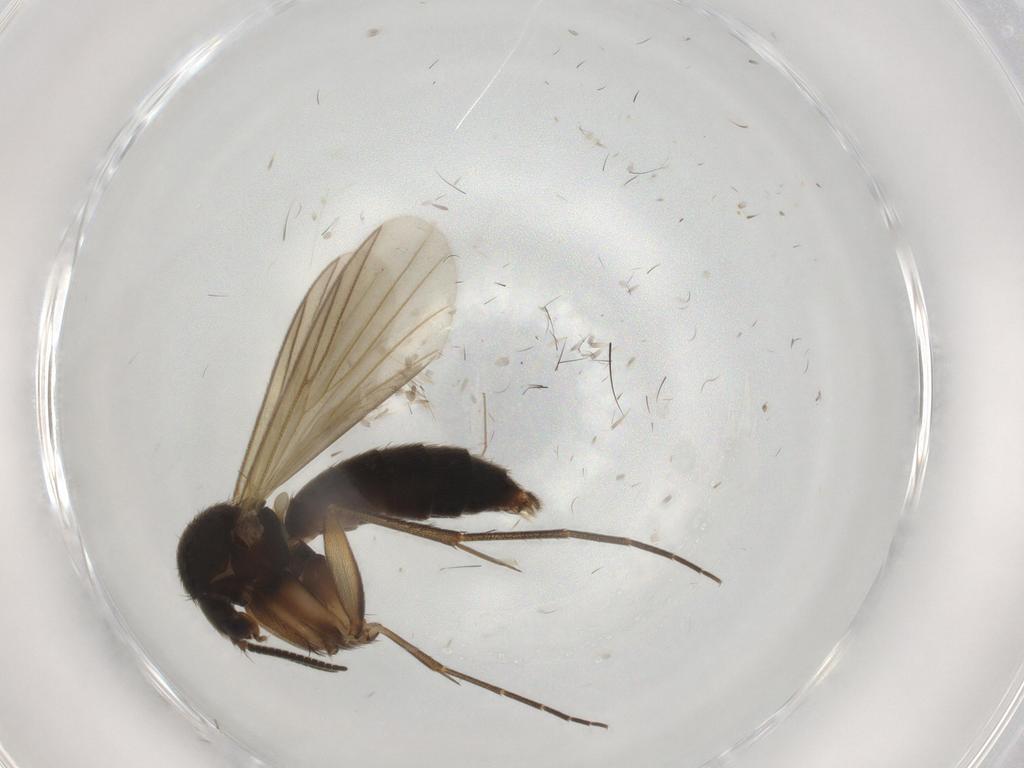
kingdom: Animalia
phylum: Arthropoda
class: Insecta
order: Diptera
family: Mycetophilidae
